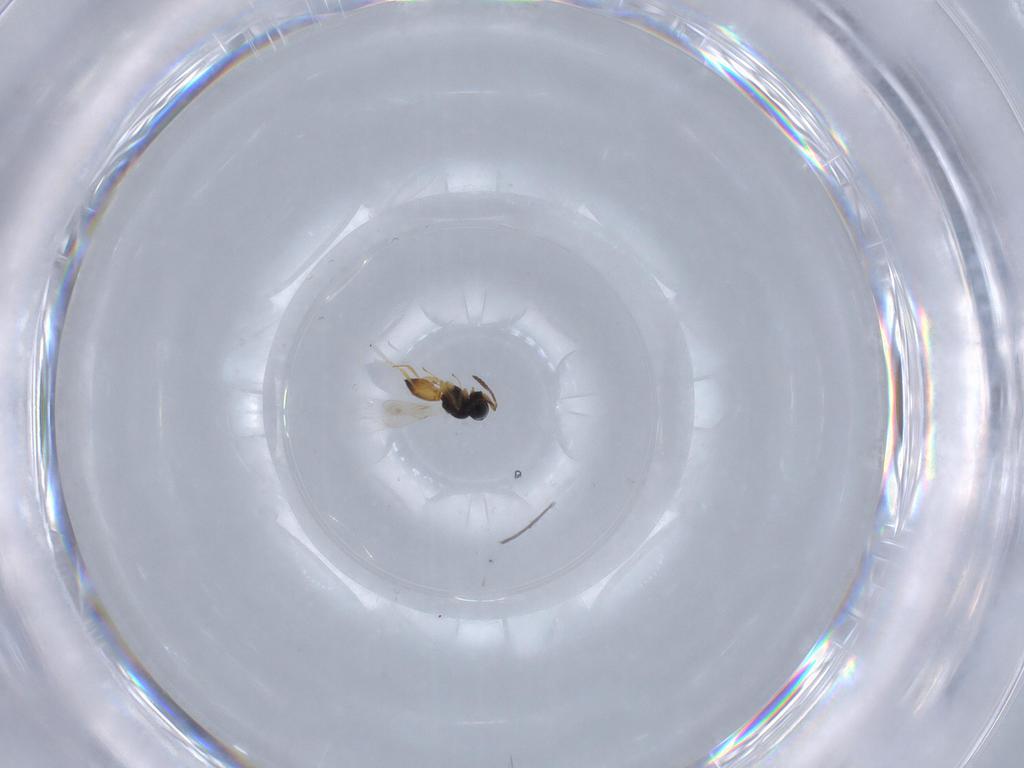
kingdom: Animalia
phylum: Arthropoda
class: Insecta
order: Hymenoptera
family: Scelionidae
